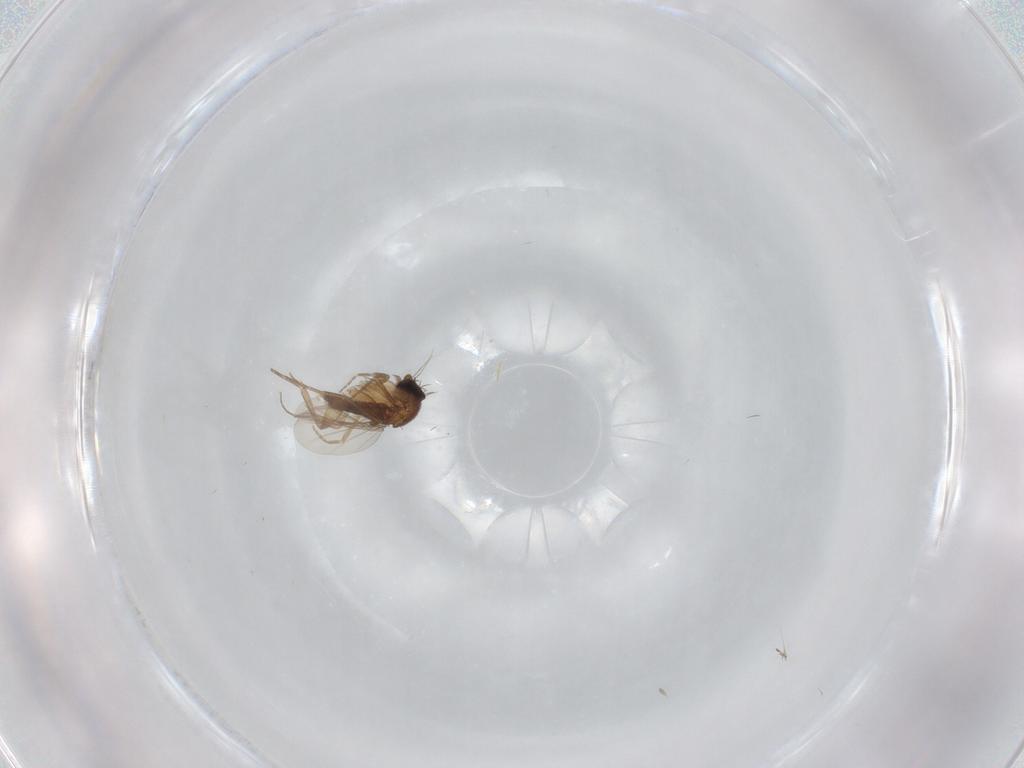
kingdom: Animalia
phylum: Arthropoda
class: Insecta
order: Diptera
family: Phoridae
